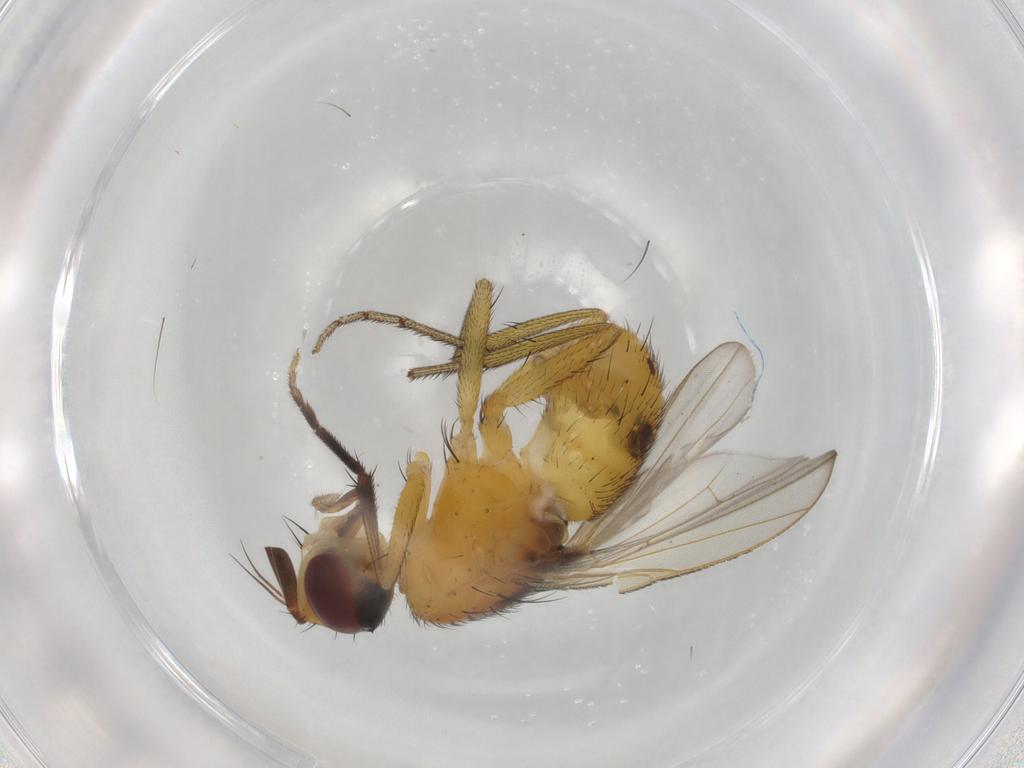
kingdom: Animalia
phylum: Arthropoda
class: Insecta
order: Diptera
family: Muscidae
